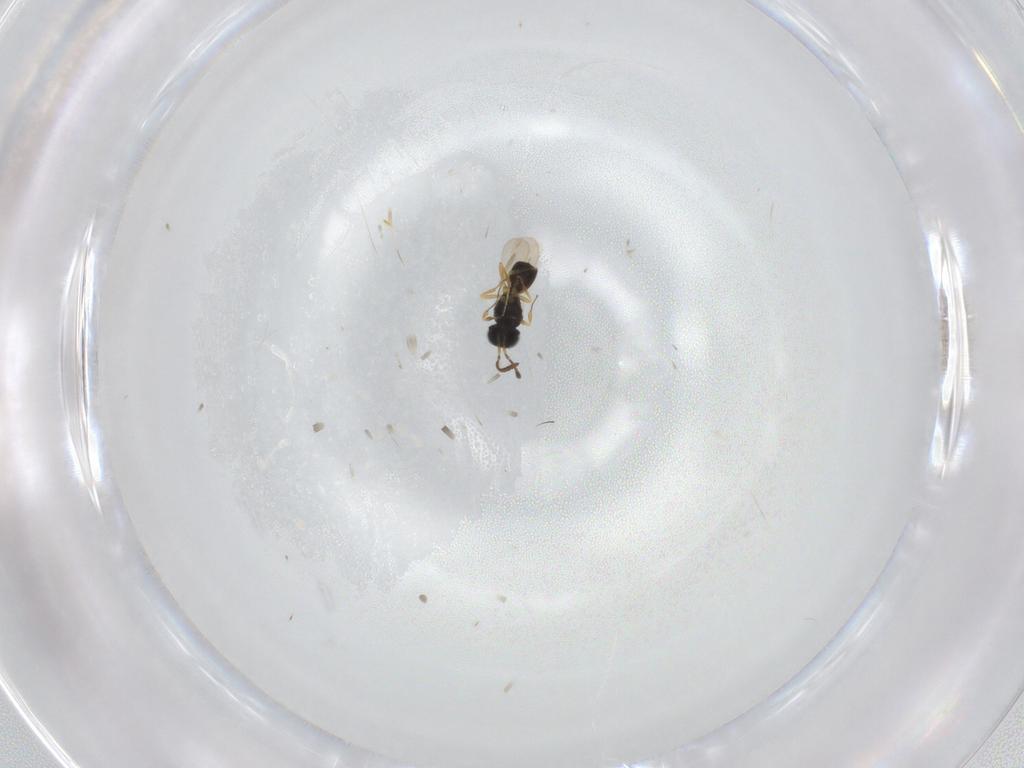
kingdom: Animalia
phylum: Arthropoda
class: Insecta
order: Hymenoptera
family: Scelionidae
